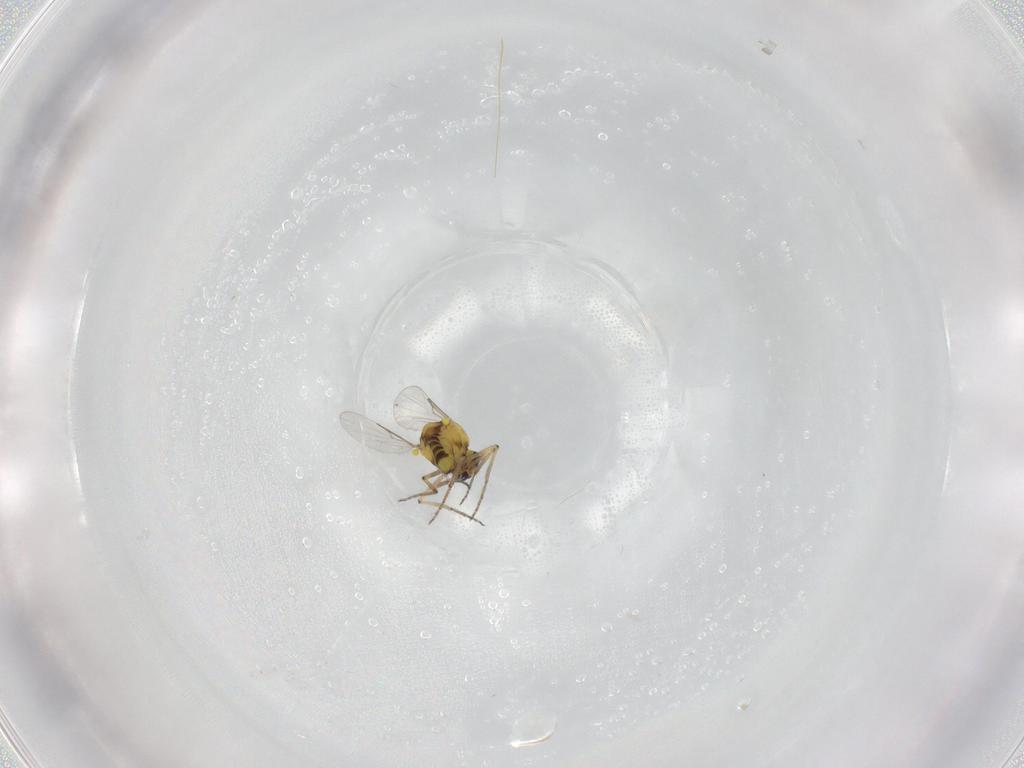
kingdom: Animalia
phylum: Arthropoda
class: Insecta
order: Diptera
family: Ceratopogonidae
